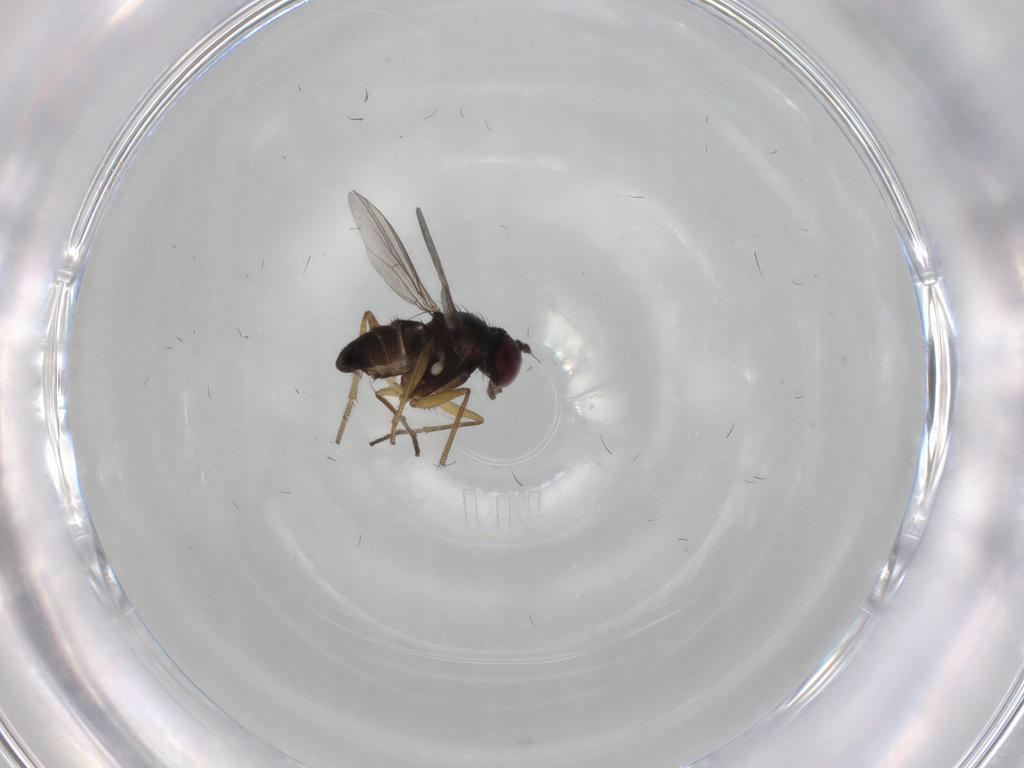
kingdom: Animalia
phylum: Arthropoda
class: Insecta
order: Diptera
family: Dolichopodidae
